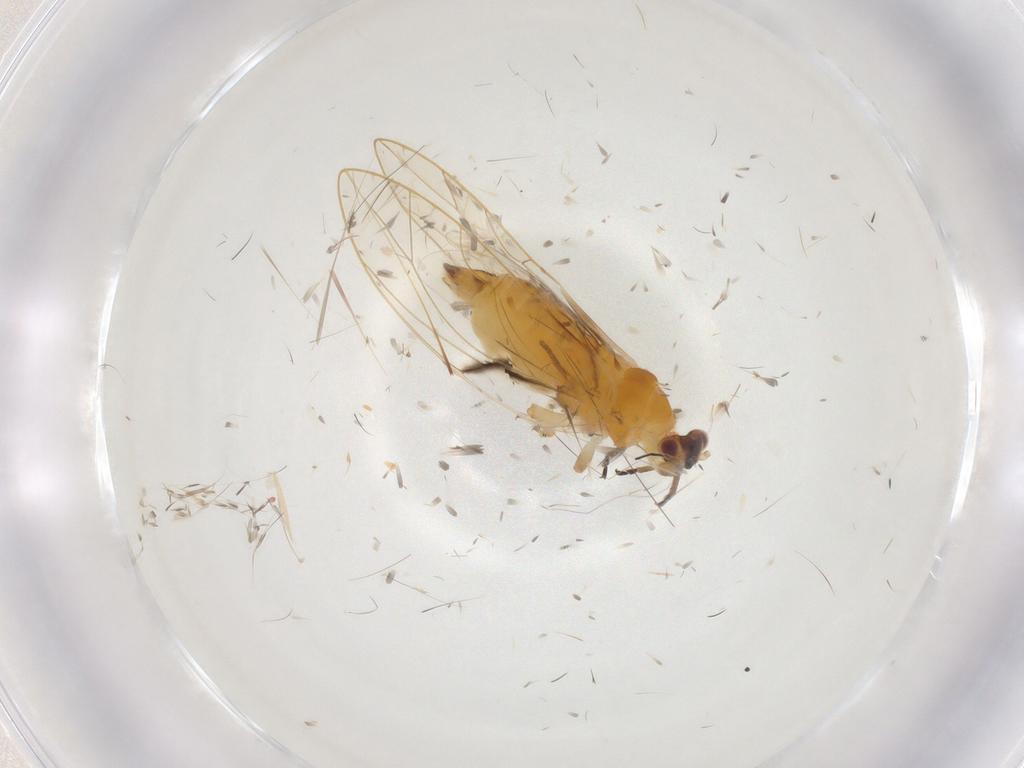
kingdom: Animalia
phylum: Arthropoda
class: Insecta
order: Hemiptera
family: Psylloidea_incertae_sedis
